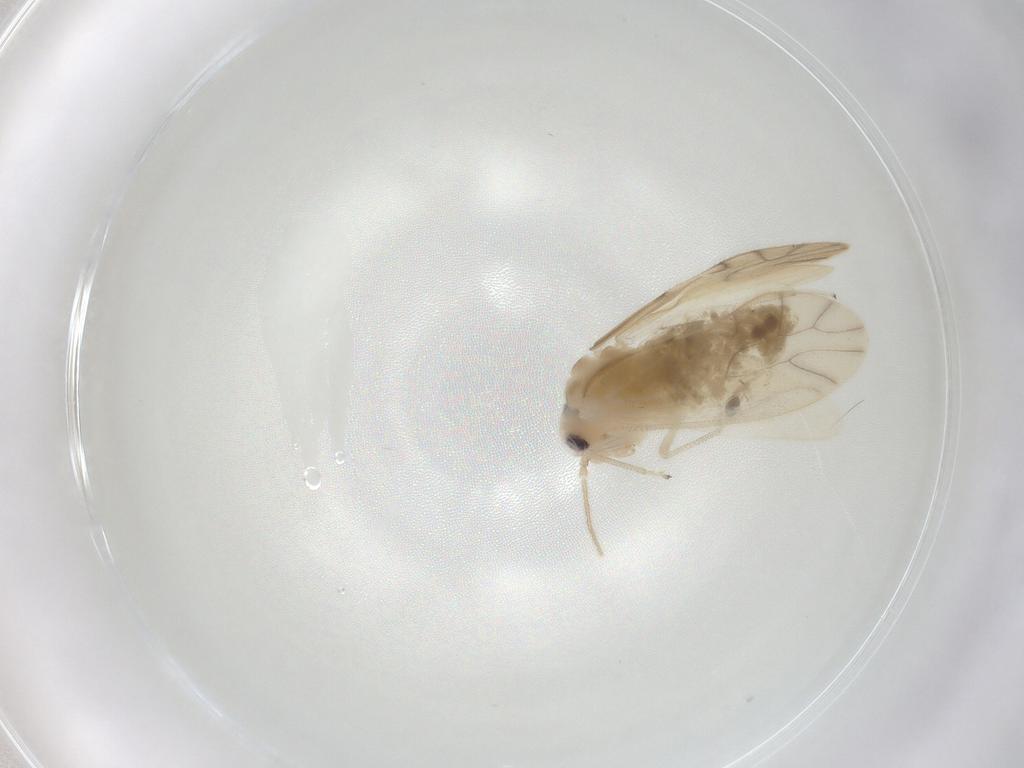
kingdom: Animalia
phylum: Arthropoda
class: Insecta
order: Psocodea
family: Caeciliusidae
